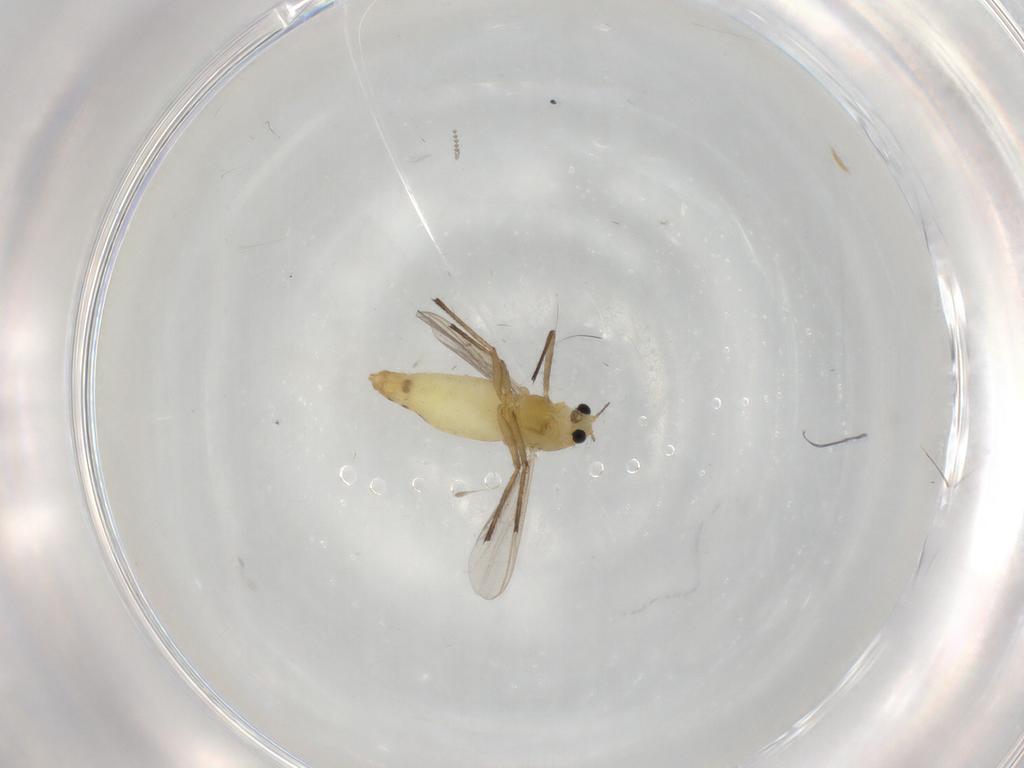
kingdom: Animalia
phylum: Arthropoda
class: Insecta
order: Diptera
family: Chironomidae
